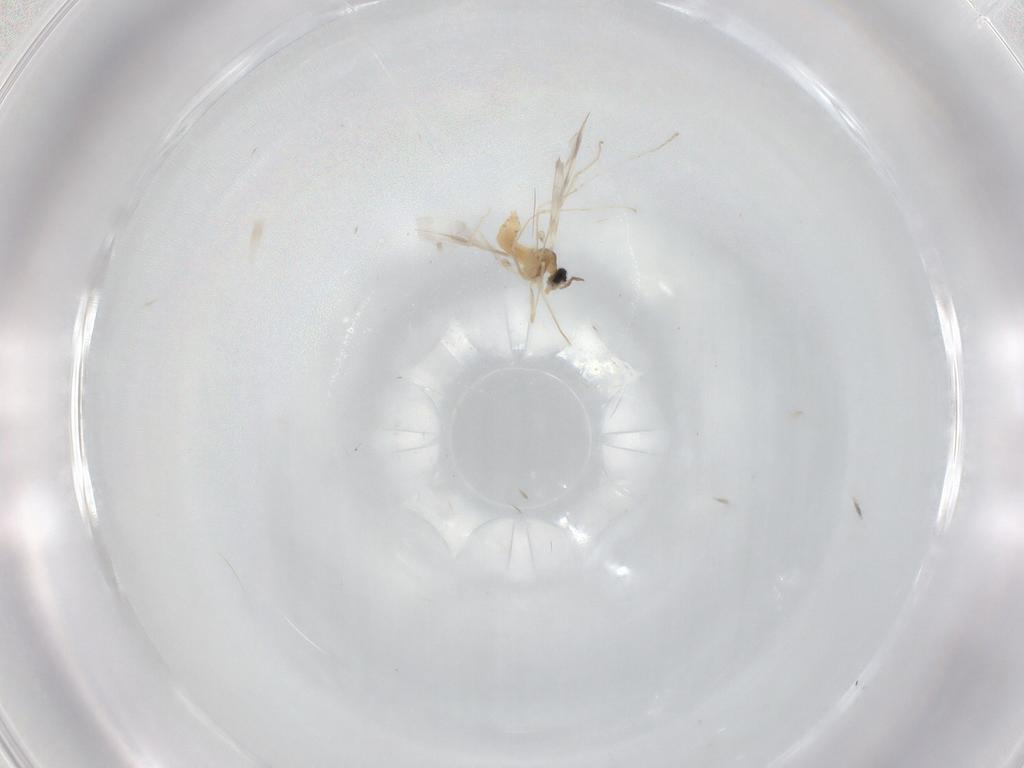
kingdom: Animalia
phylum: Arthropoda
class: Insecta
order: Diptera
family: Cecidomyiidae
